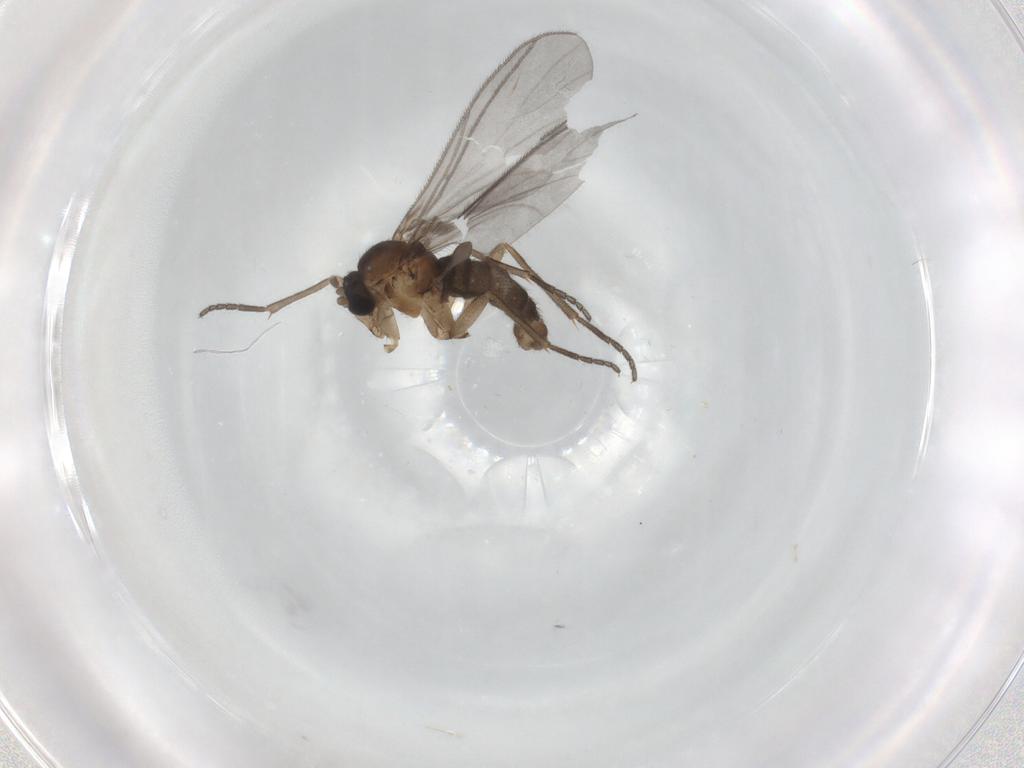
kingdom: Animalia
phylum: Arthropoda
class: Insecta
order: Diptera
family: Sciaridae
